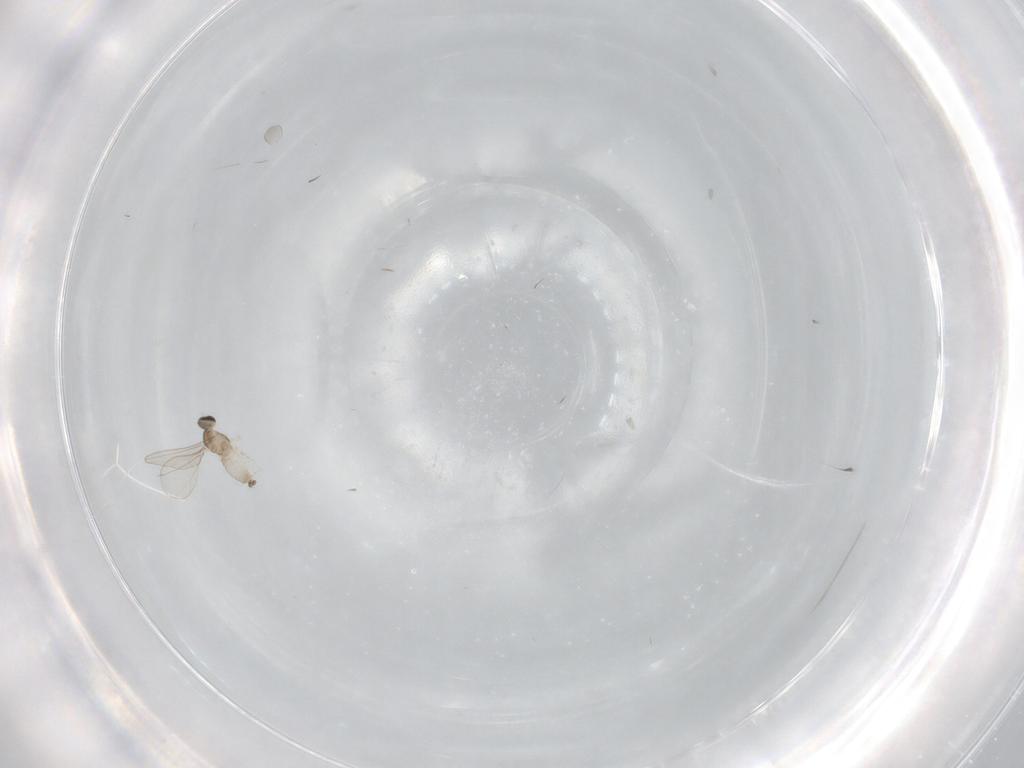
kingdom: Animalia
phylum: Arthropoda
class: Insecta
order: Diptera
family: Cecidomyiidae
